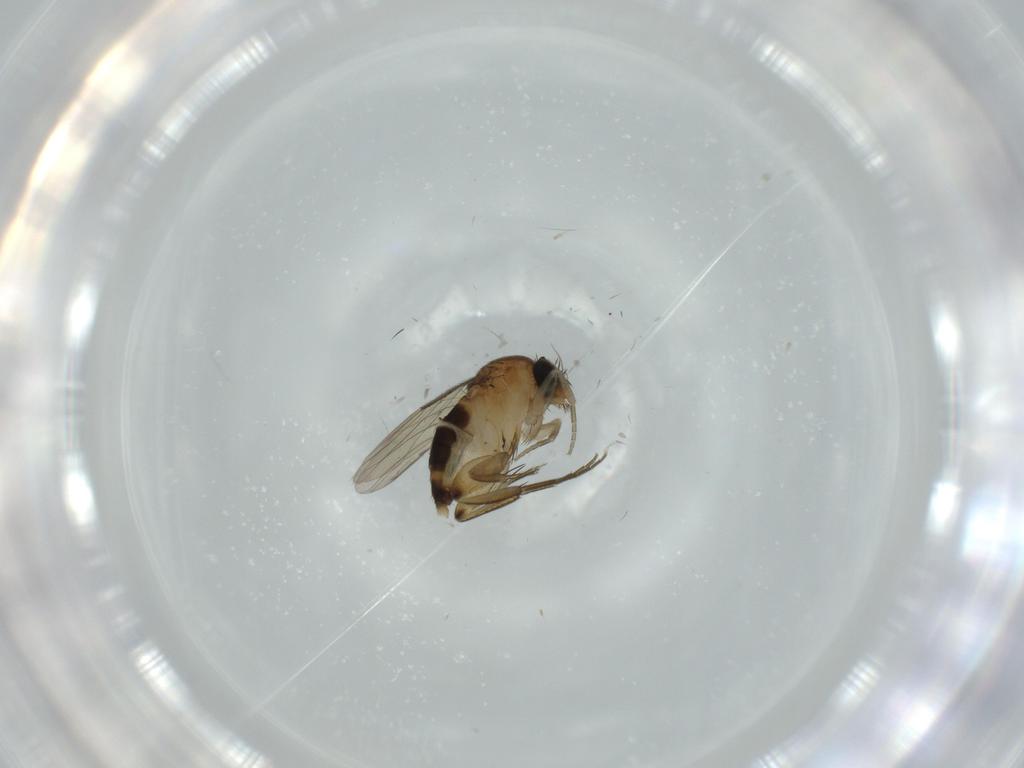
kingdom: Animalia
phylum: Arthropoda
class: Insecta
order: Diptera
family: Phoridae
